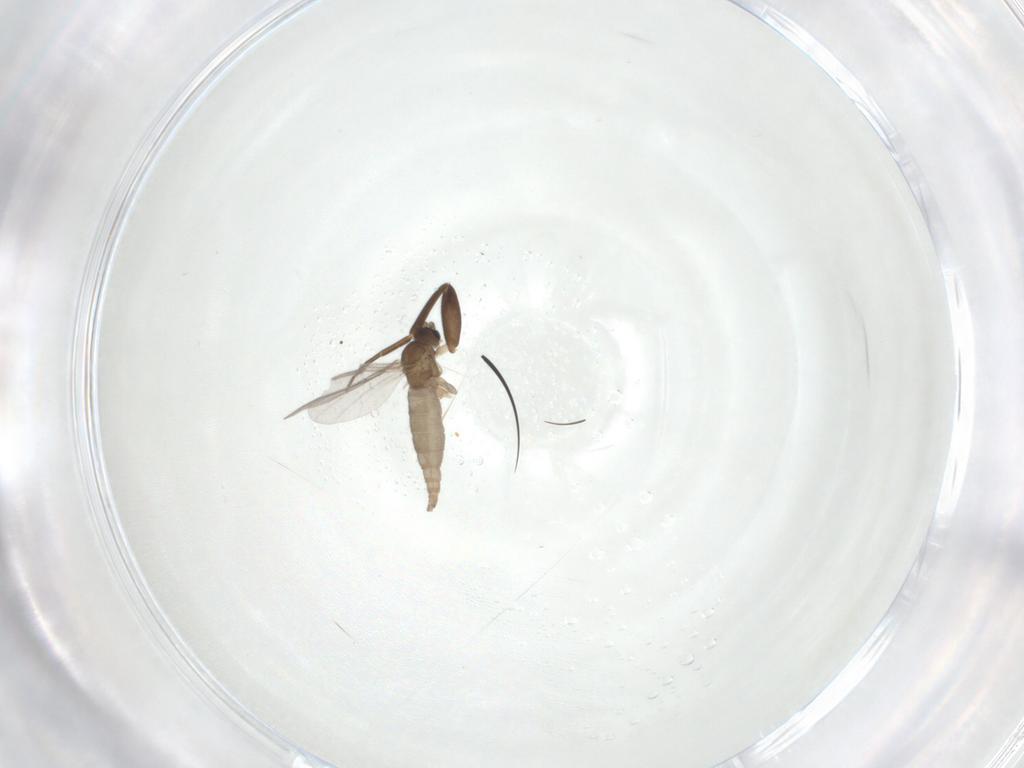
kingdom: Animalia
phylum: Arthropoda
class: Insecta
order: Diptera
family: Sciaridae
